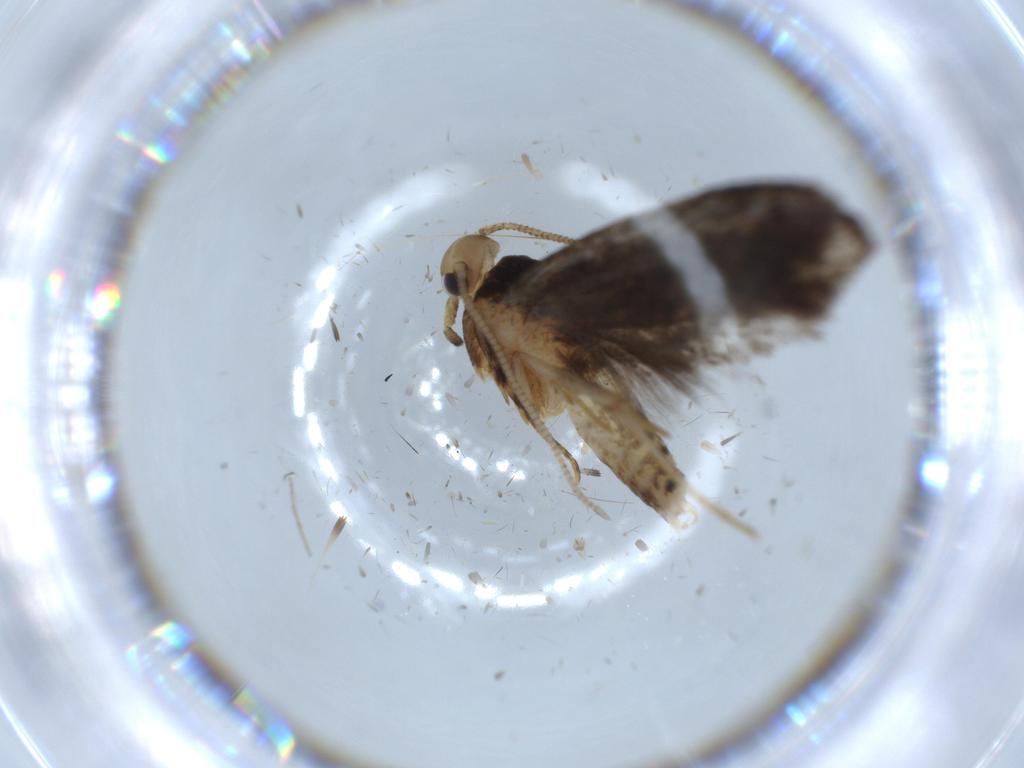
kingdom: Animalia
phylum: Arthropoda
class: Insecta
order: Lepidoptera
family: Tineidae
